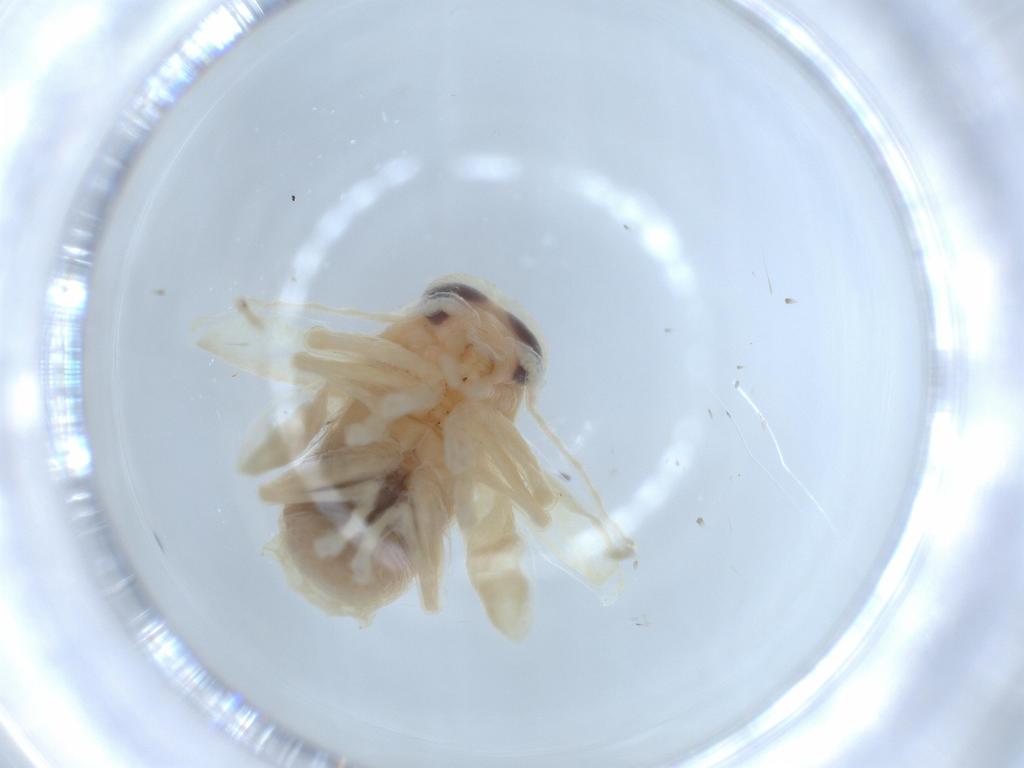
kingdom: Animalia
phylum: Arthropoda
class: Insecta
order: Coleoptera
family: Chrysomelidae
